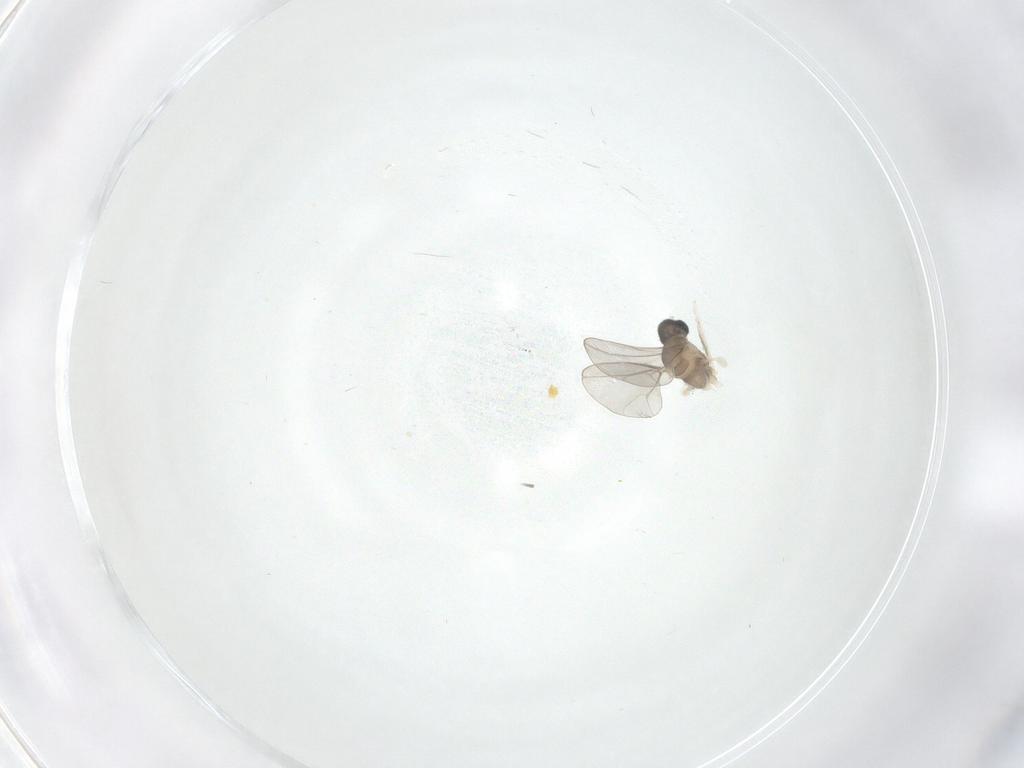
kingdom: Animalia
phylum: Arthropoda
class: Insecta
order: Diptera
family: Cecidomyiidae
